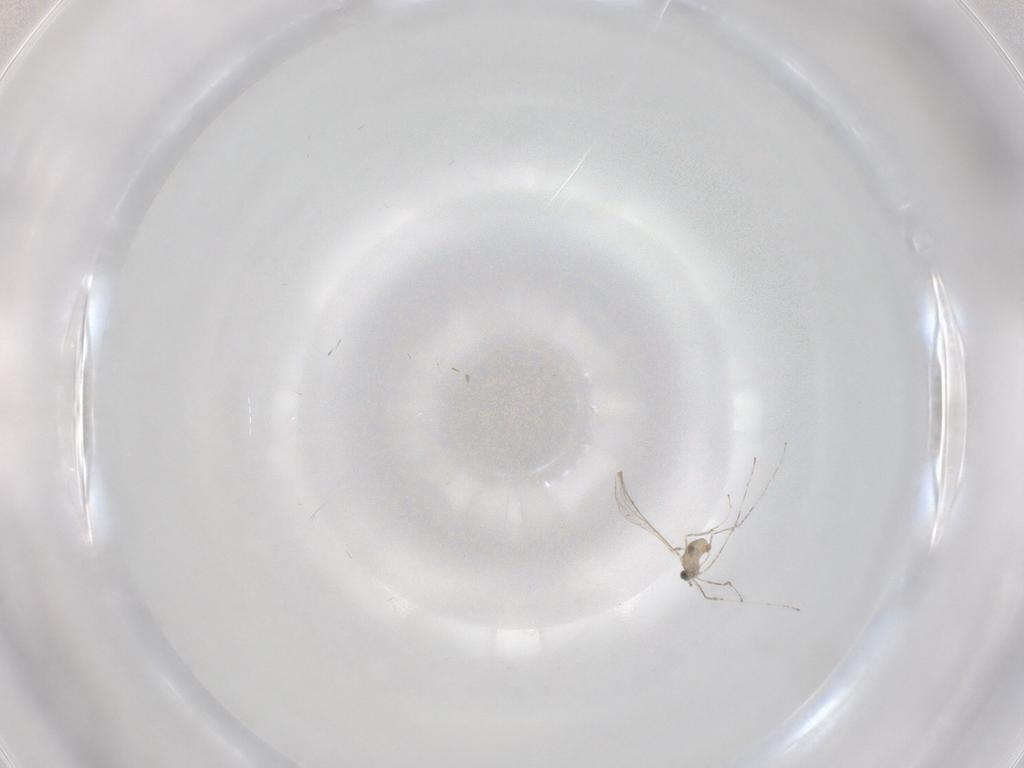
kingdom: Animalia
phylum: Arthropoda
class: Insecta
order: Diptera
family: Cecidomyiidae
